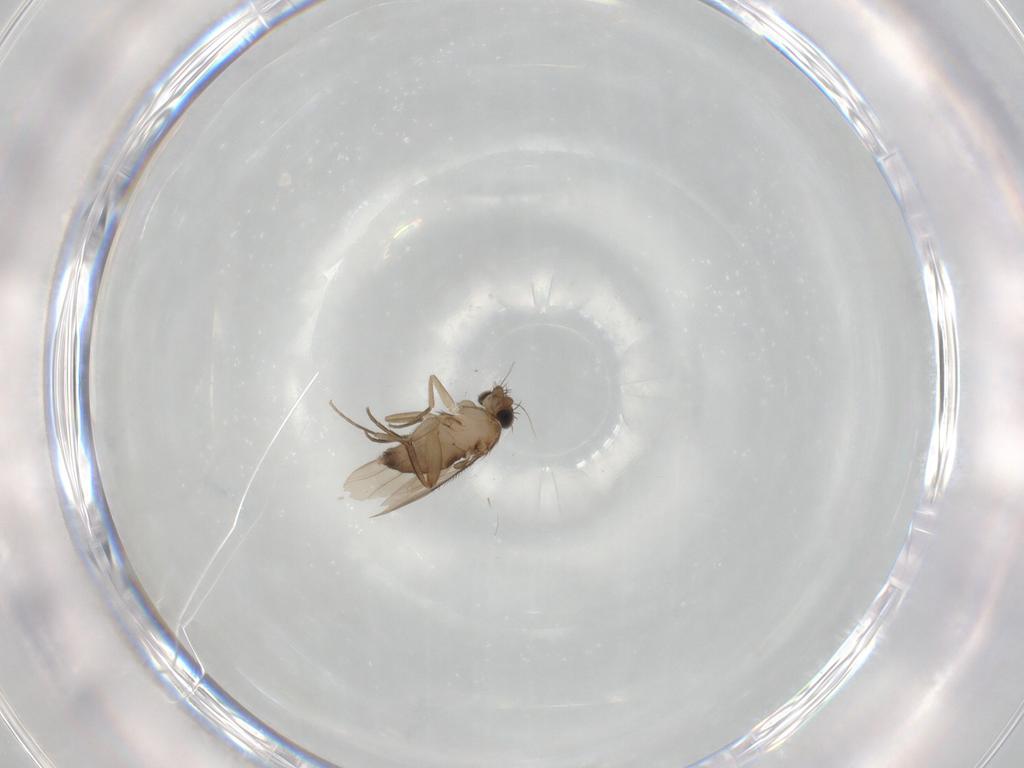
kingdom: Animalia
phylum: Arthropoda
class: Insecta
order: Diptera
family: Phoridae
